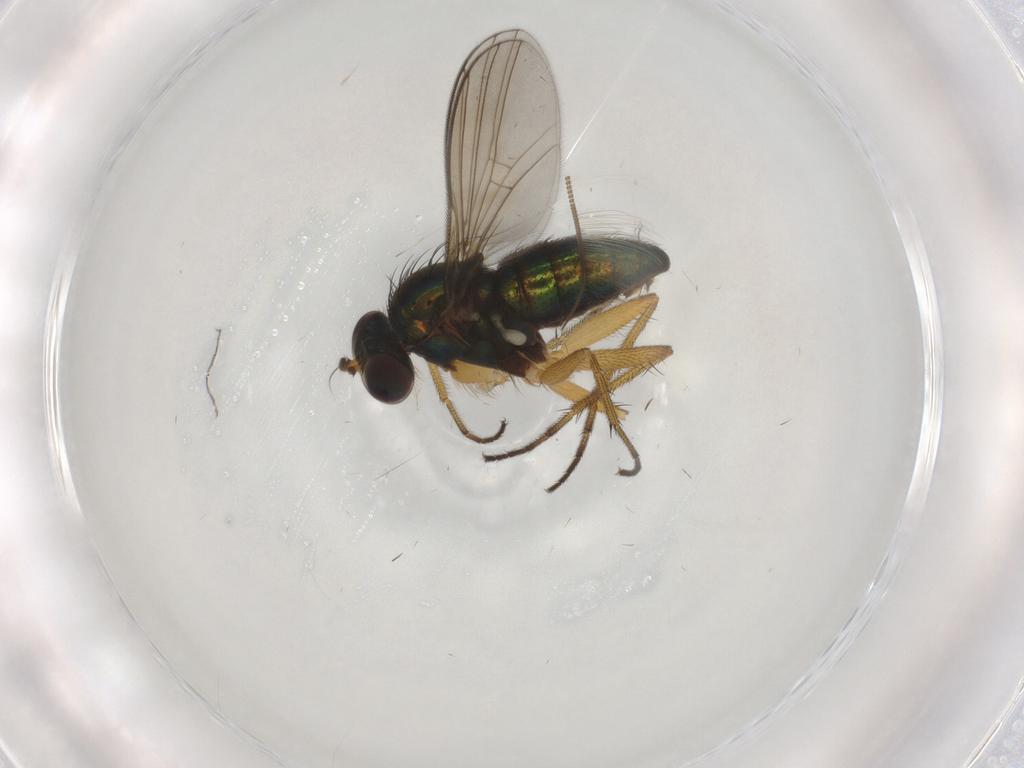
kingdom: Animalia
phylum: Arthropoda
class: Insecta
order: Diptera
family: Dolichopodidae
